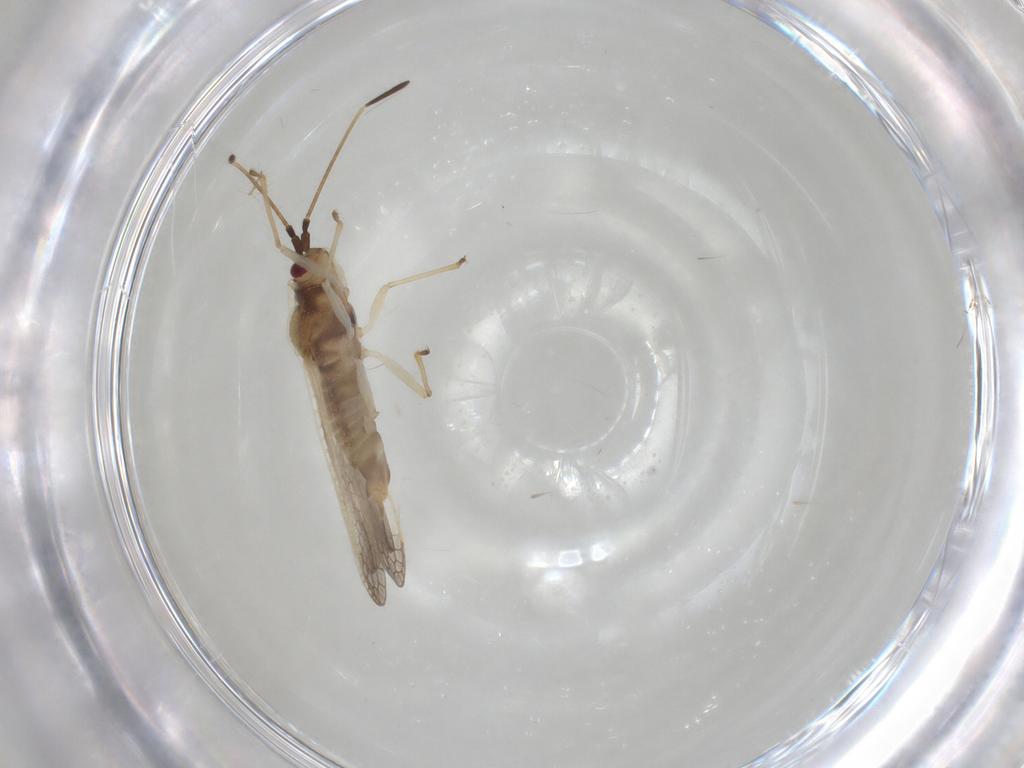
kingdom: Animalia
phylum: Arthropoda
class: Insecta
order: Hemiptera
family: Tingidae
